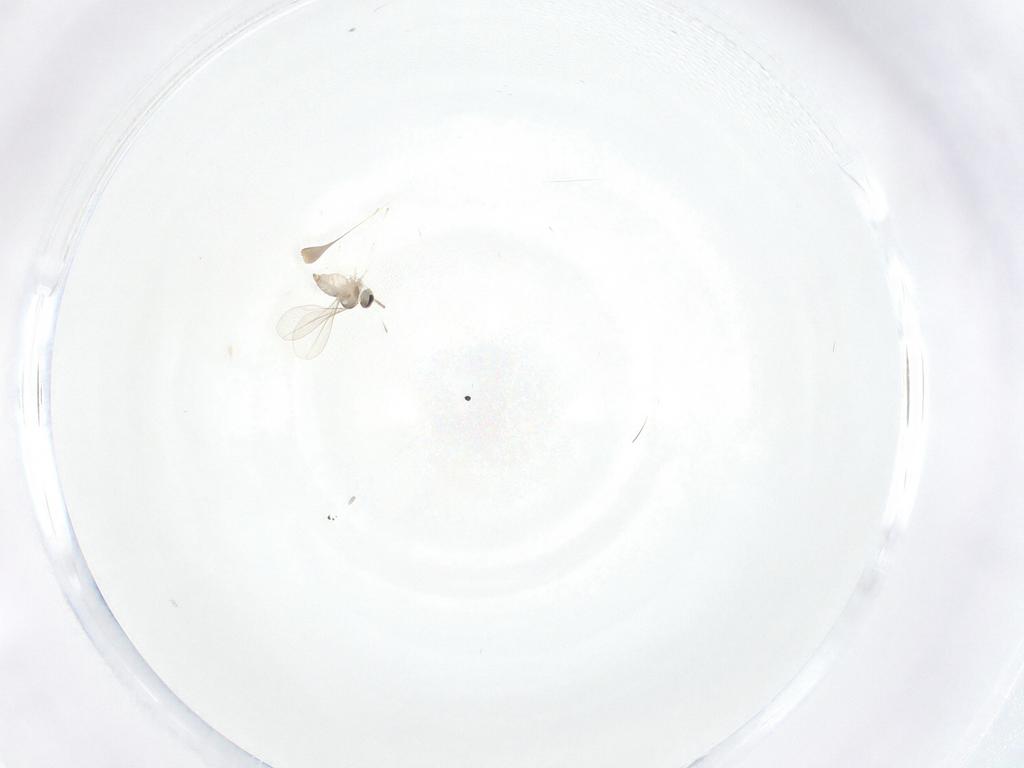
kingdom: Animalia
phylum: Arthropoda
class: Insecta
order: Diptera
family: Cecidomyiidae
